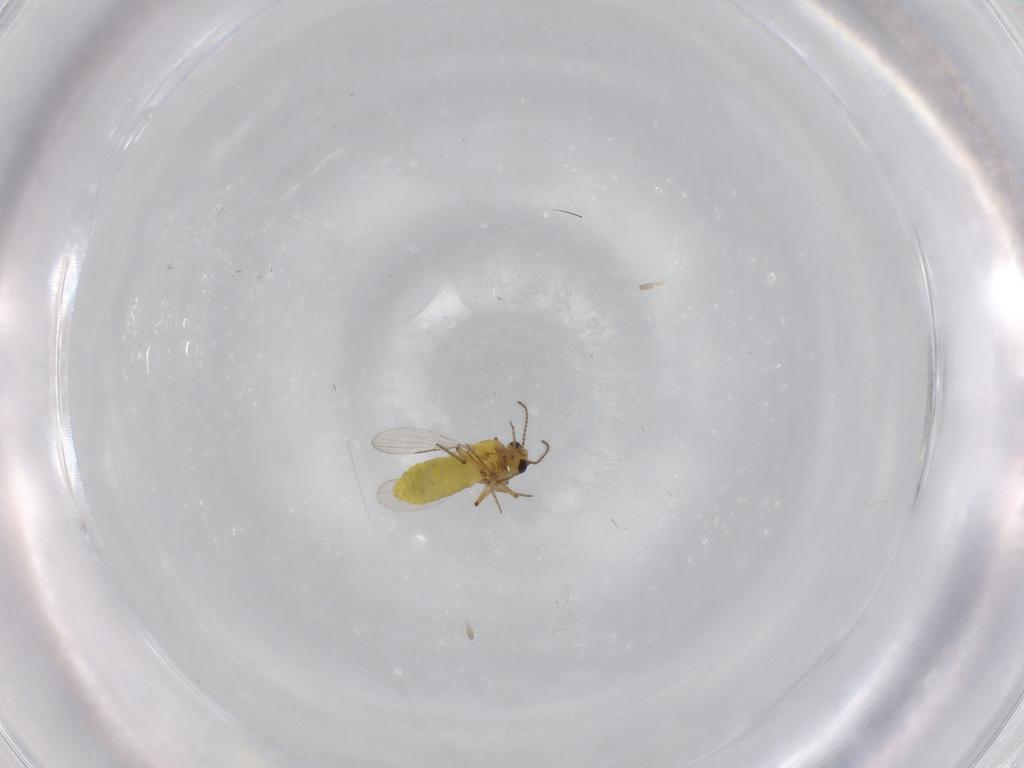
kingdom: Animalia
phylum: Arthropoda
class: Insecta
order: Diptera
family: Ceratopogonidae
